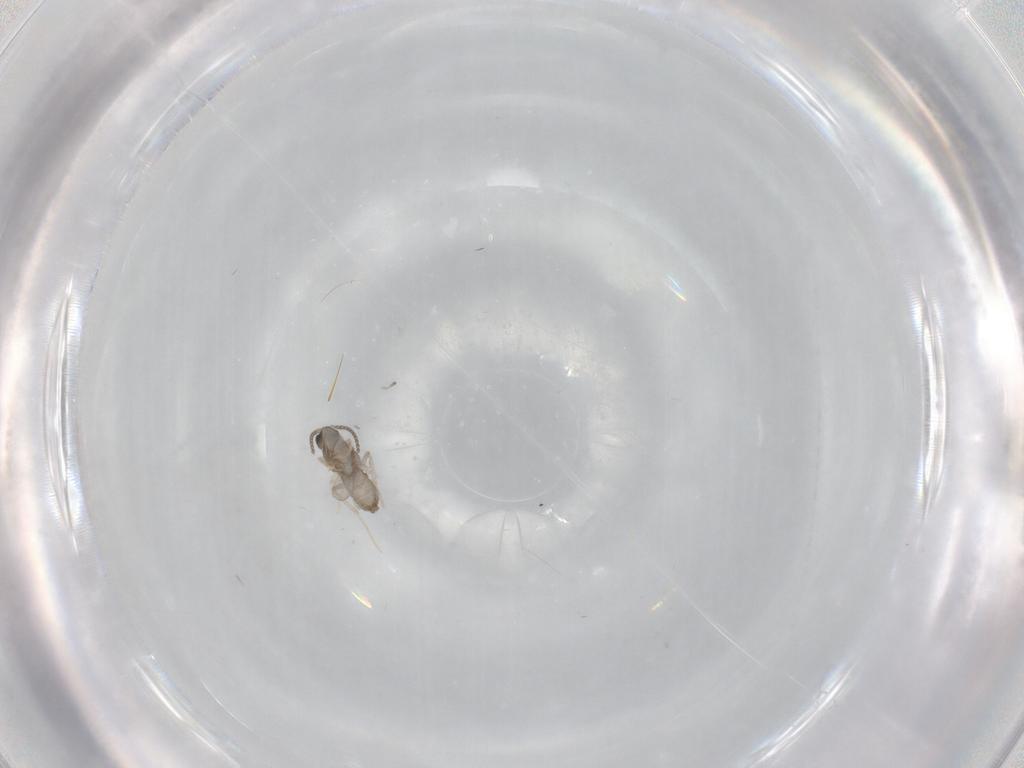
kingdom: Animalia
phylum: Arthropoda
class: Insecta
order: Diptera
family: Cecidomyiidae
